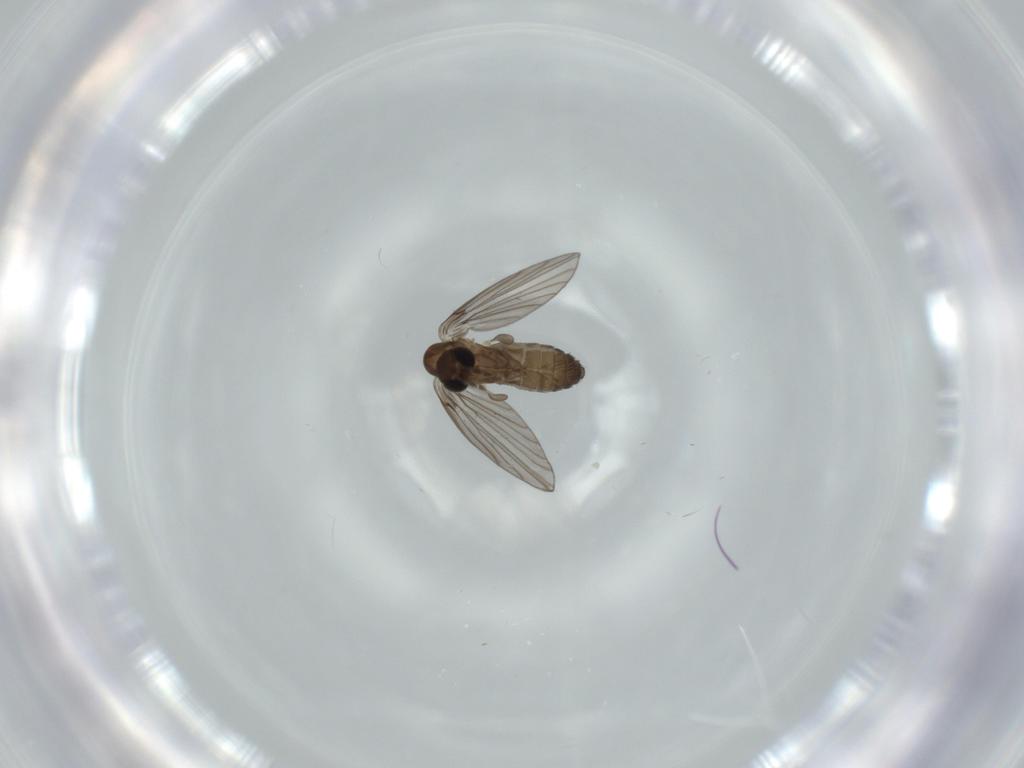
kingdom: Animalia
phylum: Arthropoda
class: Insecta
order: Diptera
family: Psychodidae
